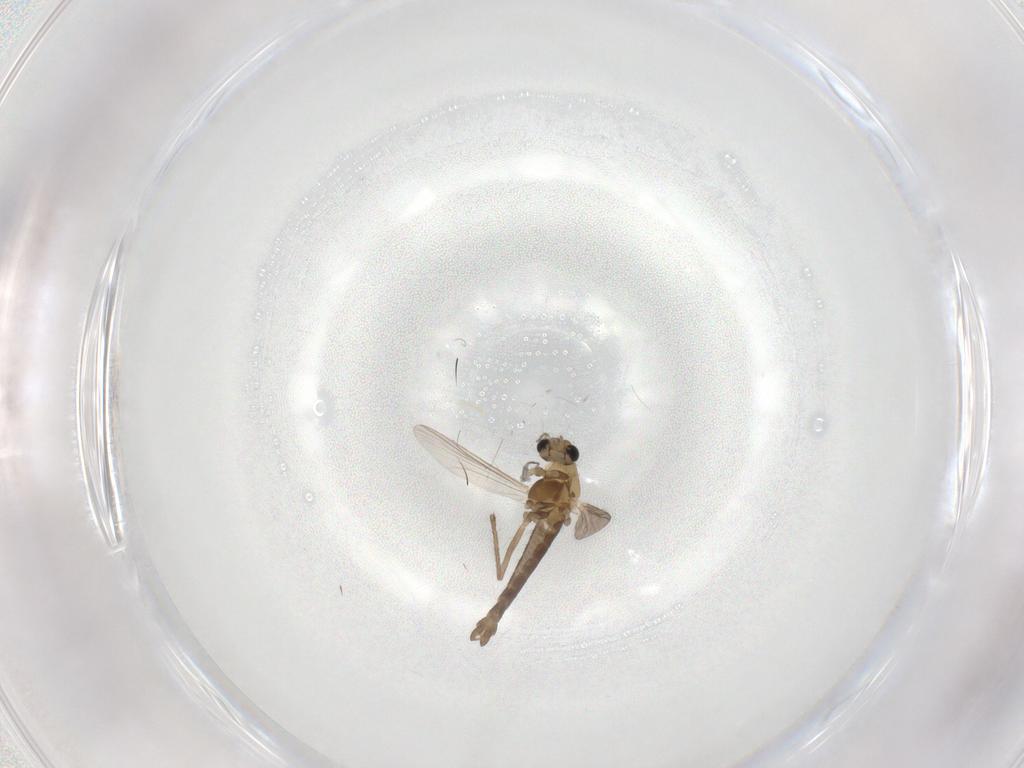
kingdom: Animalia
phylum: Arthropoda
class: Insecta
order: Diptera
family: Chironomidae
